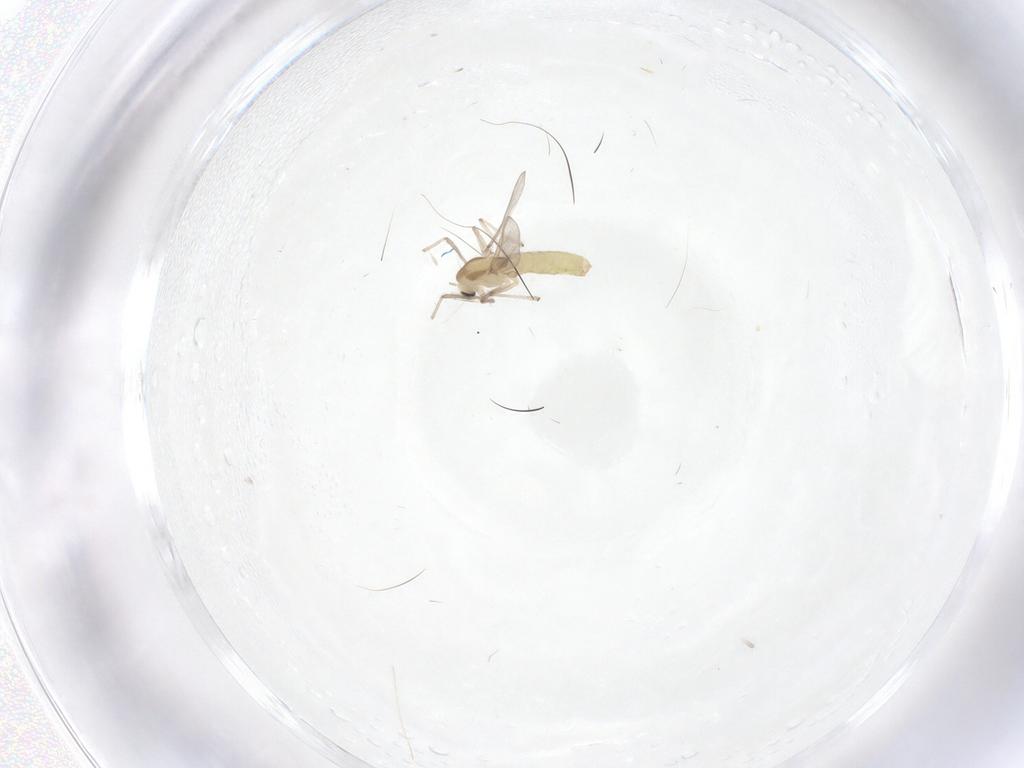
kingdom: Animalia
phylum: Arthropoda
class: Insecta
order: Diptera
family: Chironomidae
